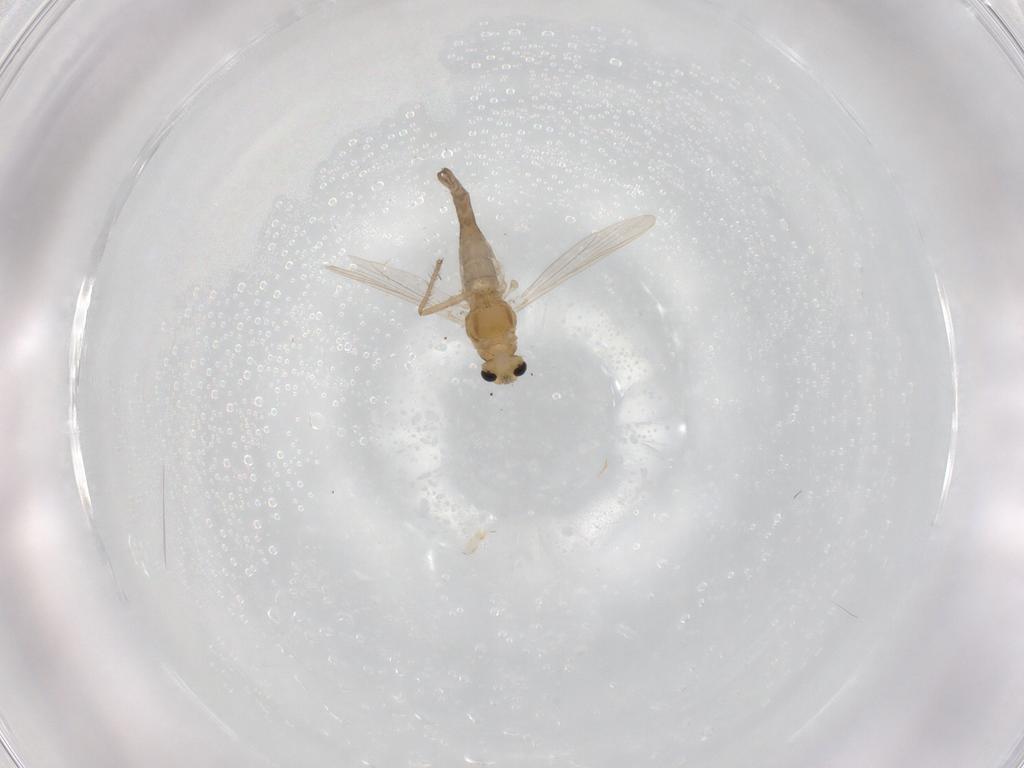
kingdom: Animalia
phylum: Arthropoda
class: Insecta
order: Diptera
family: Chironomidae
